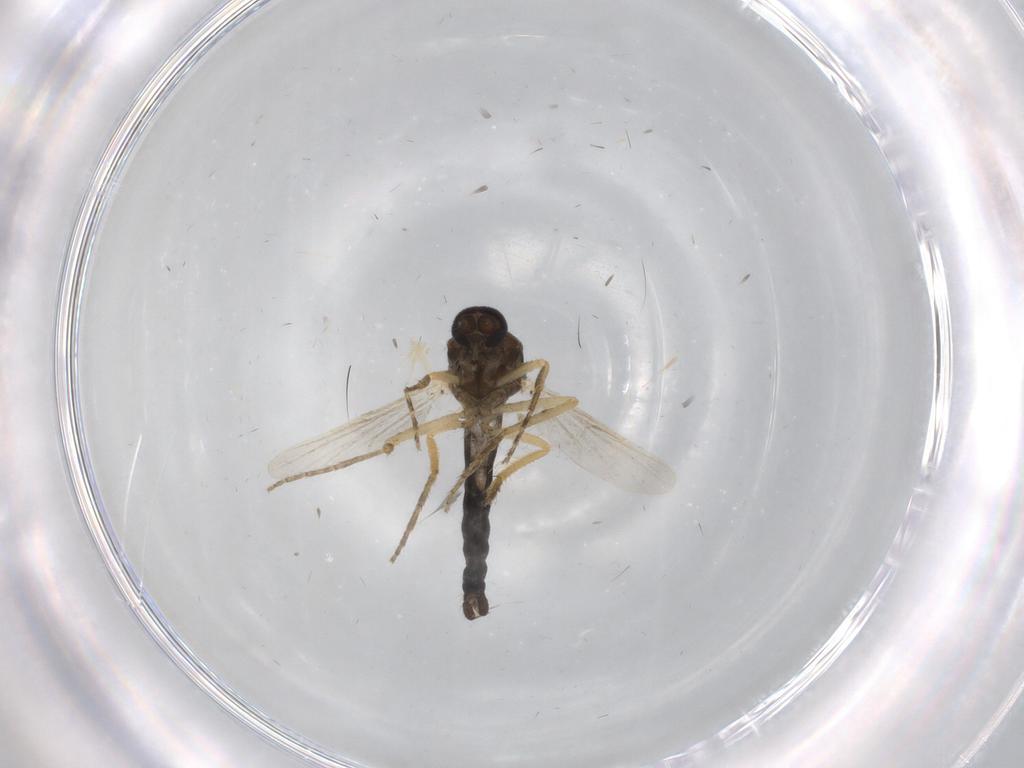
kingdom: Animalia
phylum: Arthropoda
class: Insecta
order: Diptera
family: Ceratopogonidae
